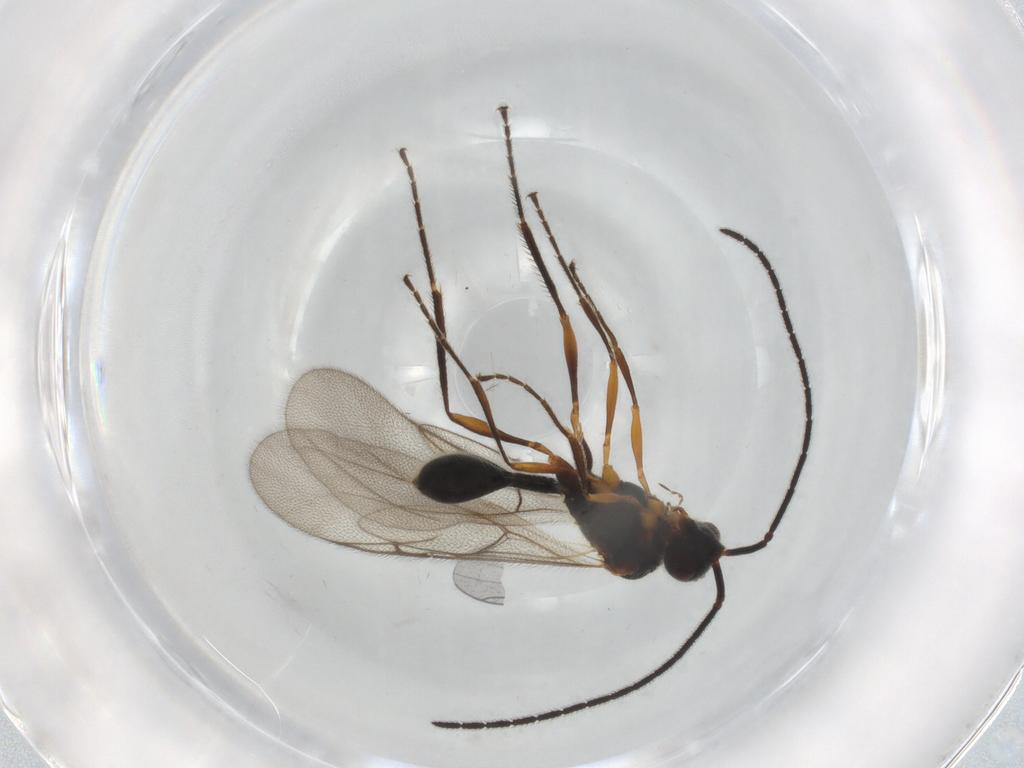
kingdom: Animalia
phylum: Arthropoda
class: Insecta
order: Hymenoptera
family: Diapriidae
